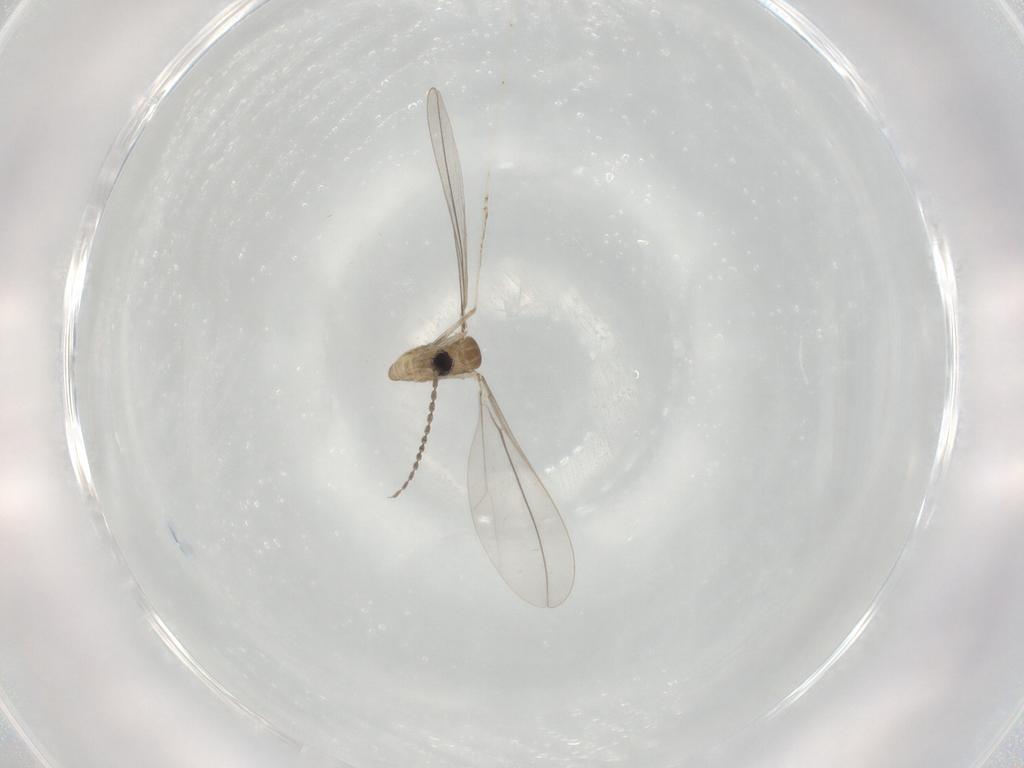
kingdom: Animalia
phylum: Arthropoda
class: Insecta
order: Diptera
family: Cecidomyiidae
